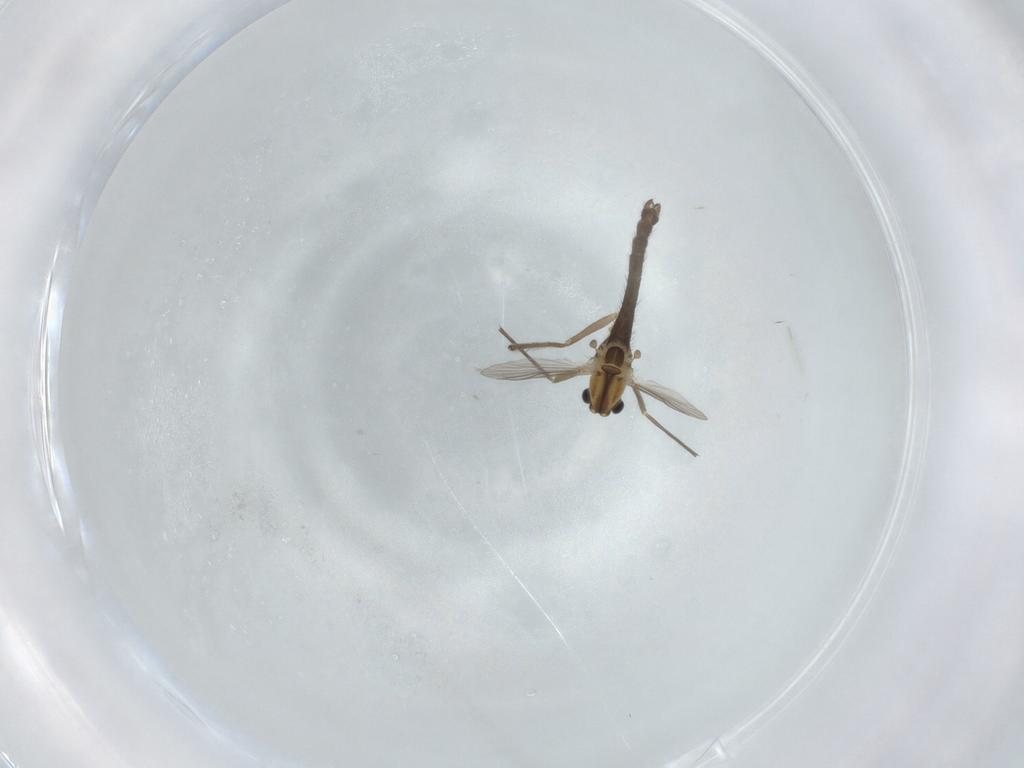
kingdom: Animalia
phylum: Arthropoda
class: Insecta
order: Diptera
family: Chironomidae
